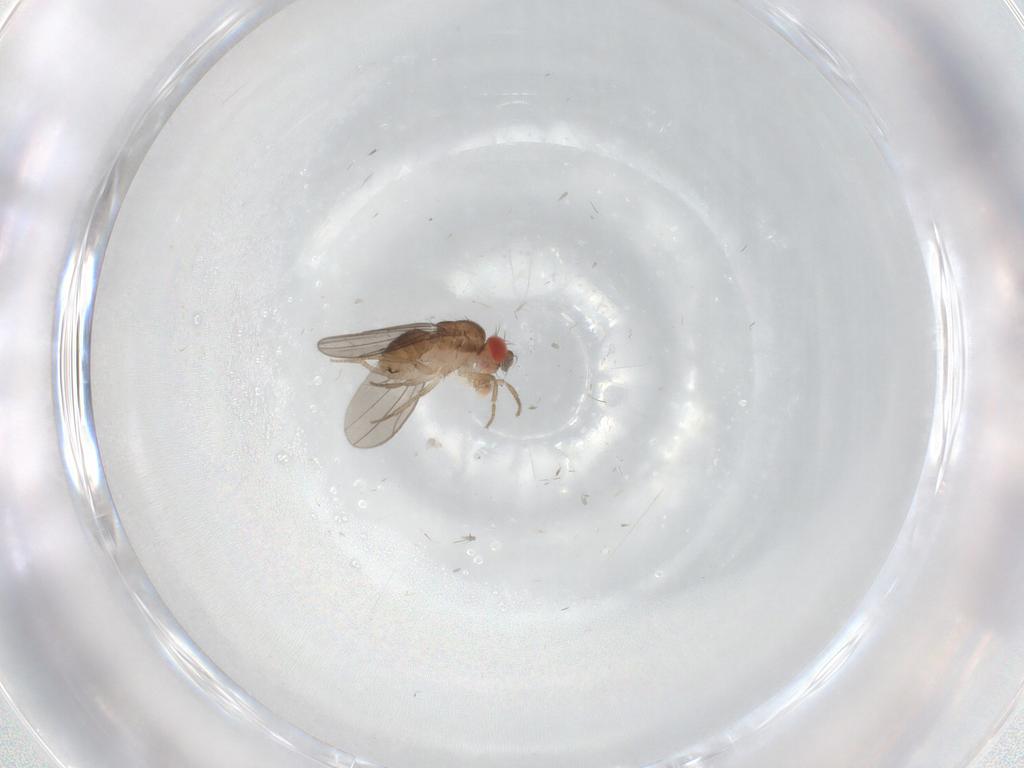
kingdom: Animalia
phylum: Arthropoda
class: Insecta
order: Diptera
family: Drosophilidae
